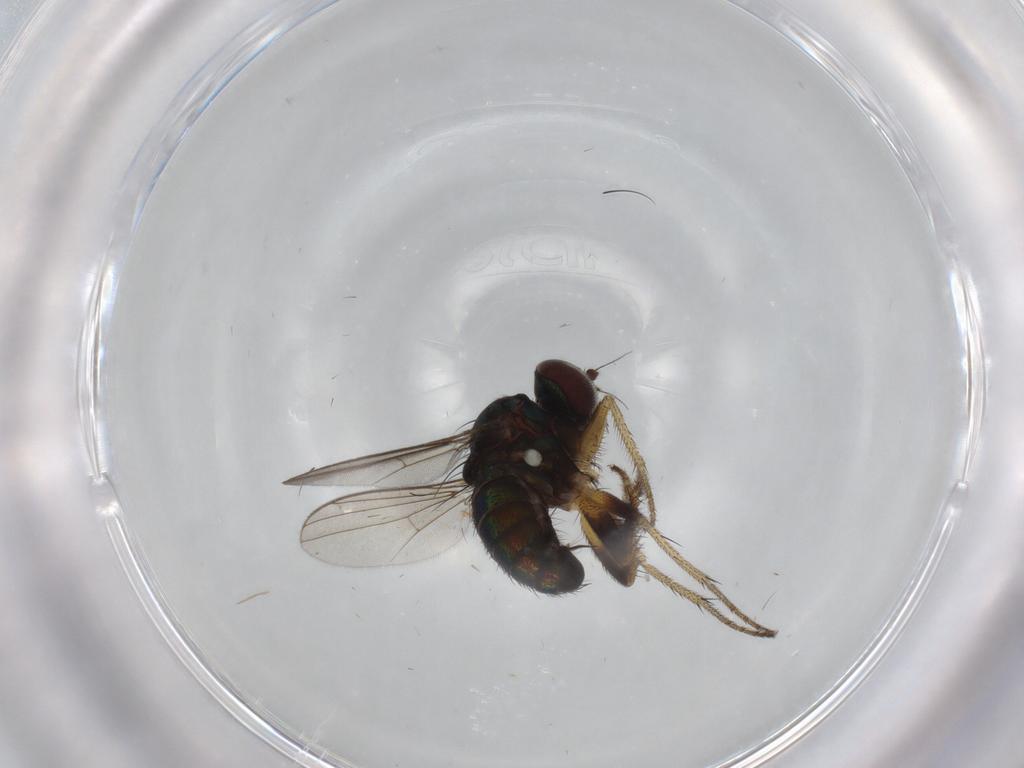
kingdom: Animalia
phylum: Arthropoda
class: Insecta
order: Diptera
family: Dolichopodidae
